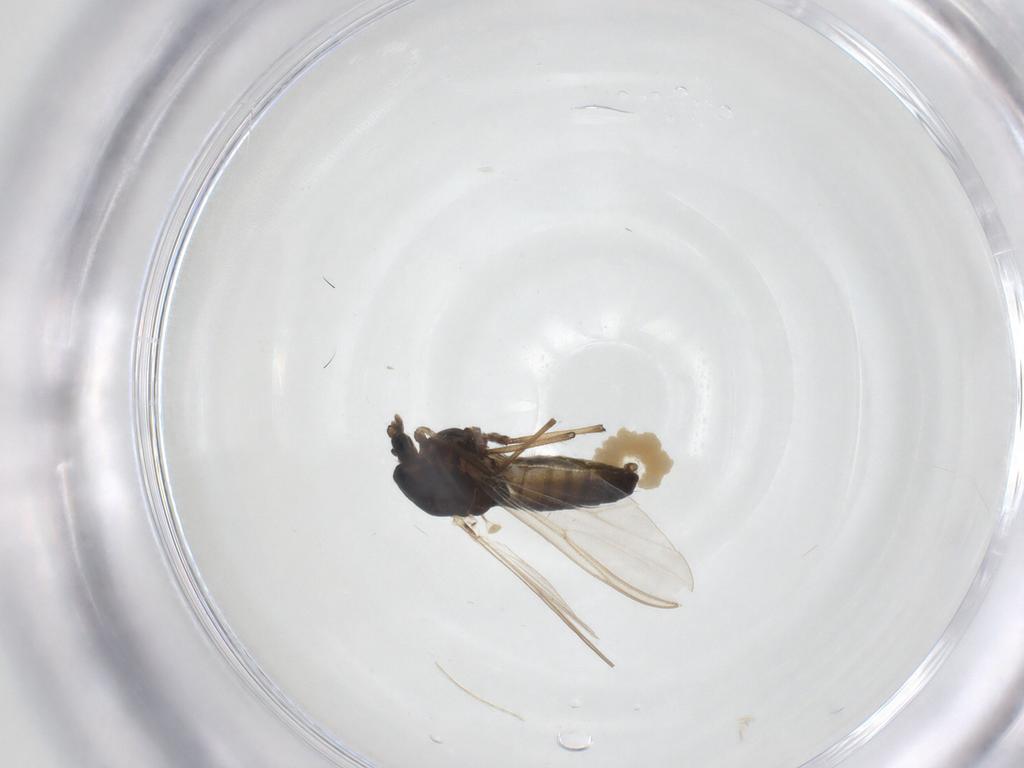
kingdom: Animalia
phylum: Arthropoda
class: Insecta
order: Diptera
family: Chironomidae
